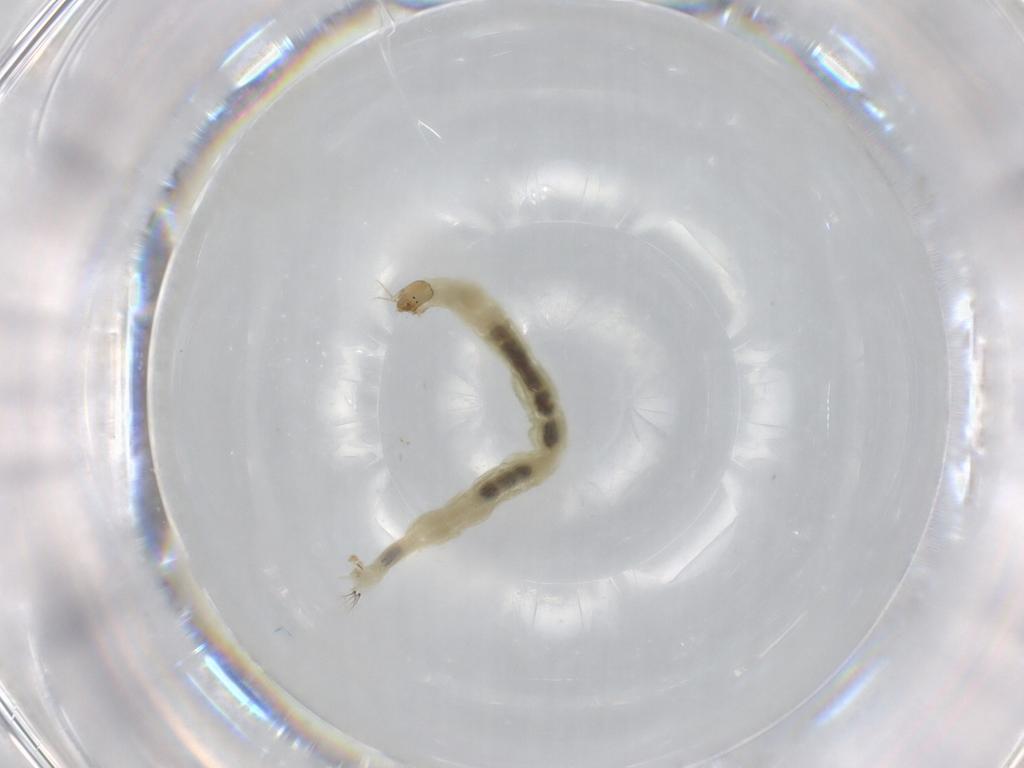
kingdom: Animalia
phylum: Arthropoda
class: Insecta
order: Diptera
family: Chironomidae
